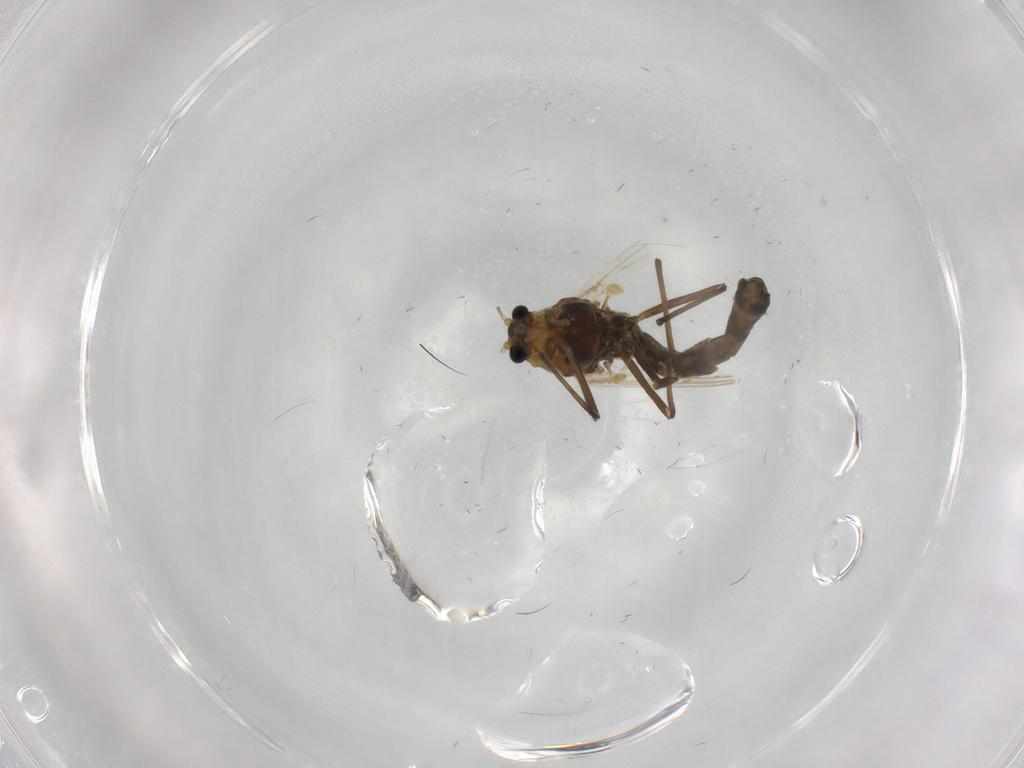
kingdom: Animalia
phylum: Arthropoda
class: Insecta
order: Diptera
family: Chironomidae
